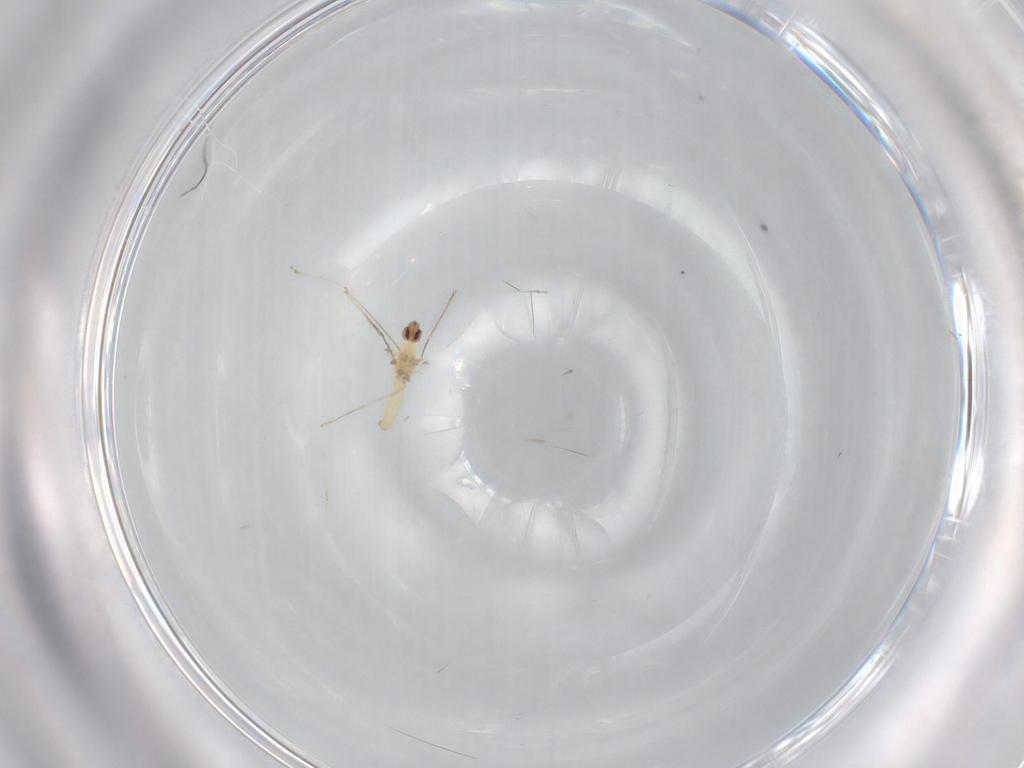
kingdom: Animalia
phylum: Arthropoda
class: Insecta
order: Diptera
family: Cecidomyiidae
